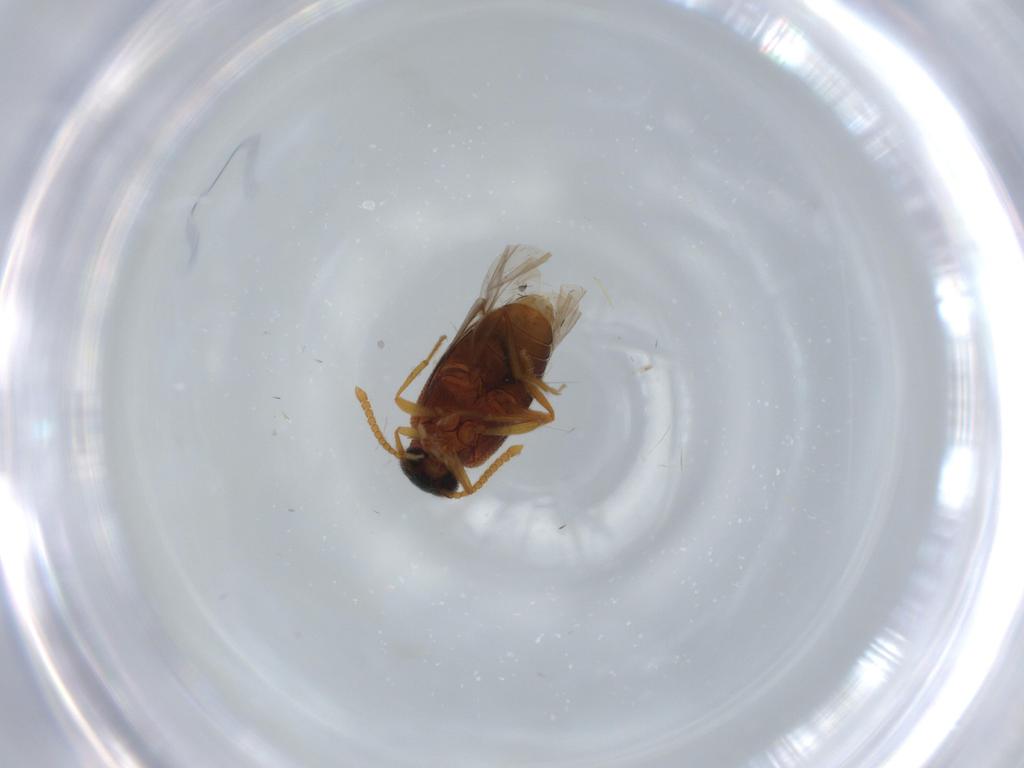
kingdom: Animalia
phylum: Arthropoda
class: Insecta
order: Coleoptera
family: Aderidae
